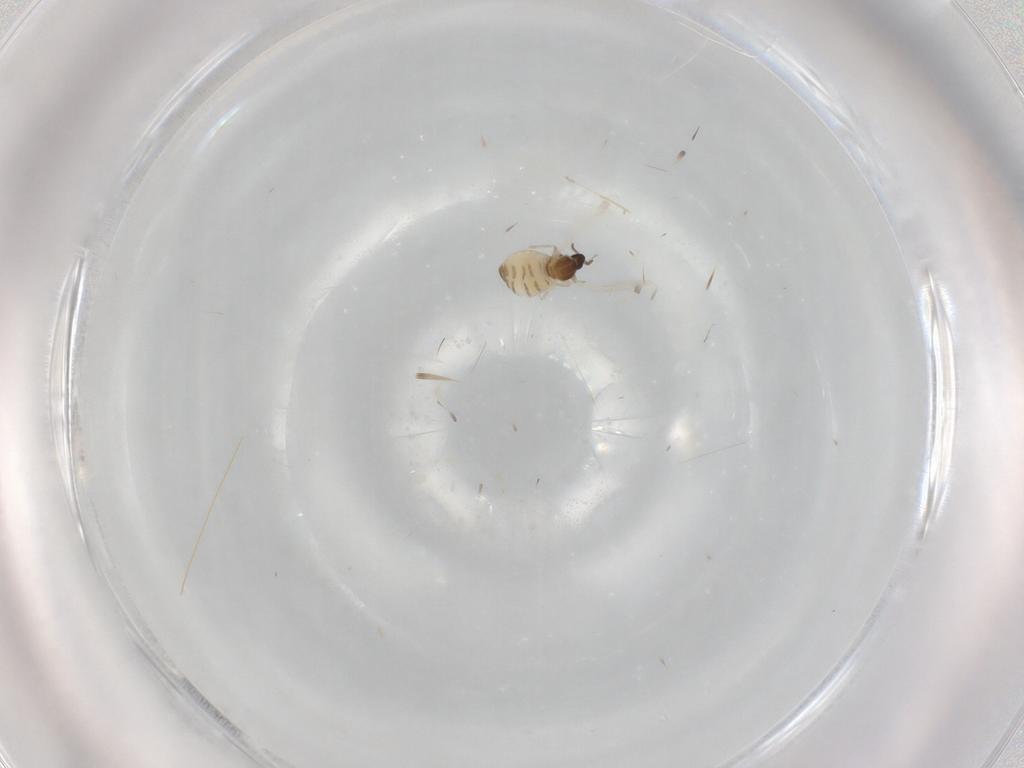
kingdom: Animalia
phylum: Arthropoda
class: Insecta
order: Diptera
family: Cecidomyiidae
